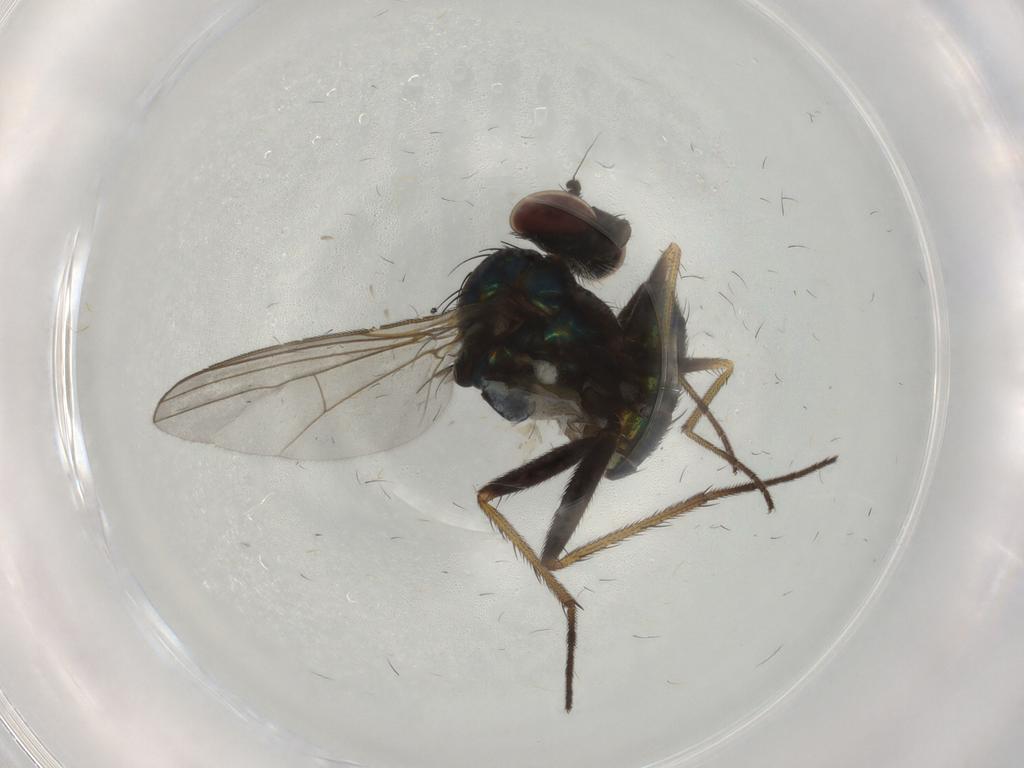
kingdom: Animalia
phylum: Arthropoda
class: Insecta
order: Diptera
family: Dolichopodidae
